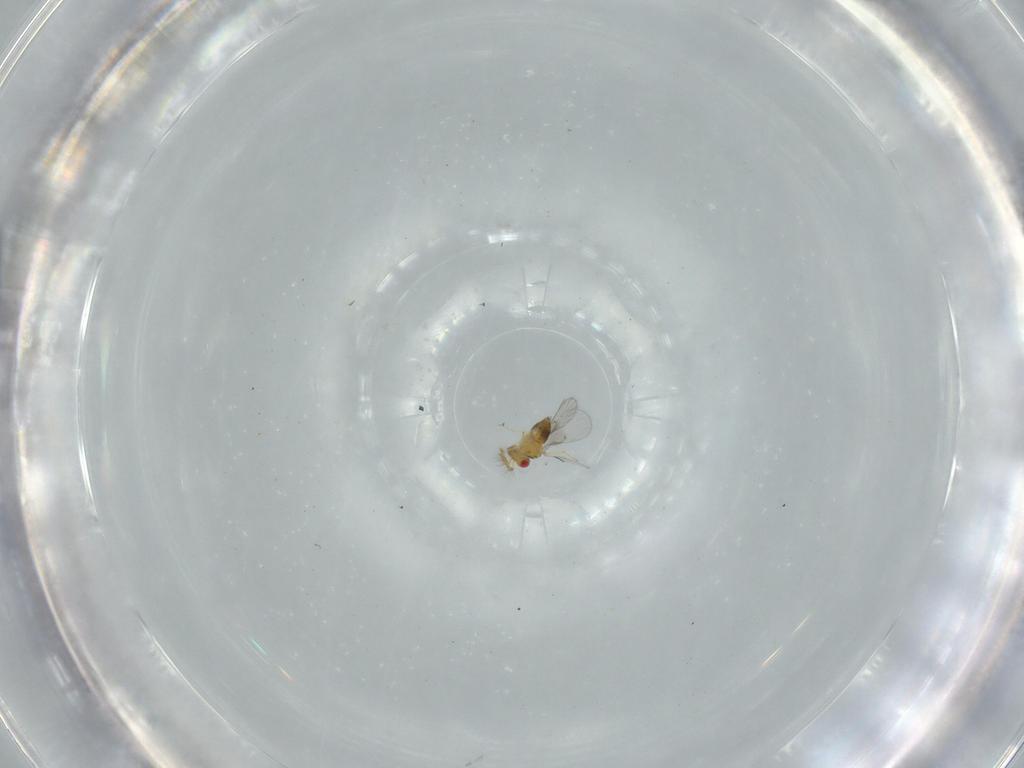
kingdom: Animalia
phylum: Arthropoda
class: Insecta
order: Hymenoptera
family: Trichogrammatidae
